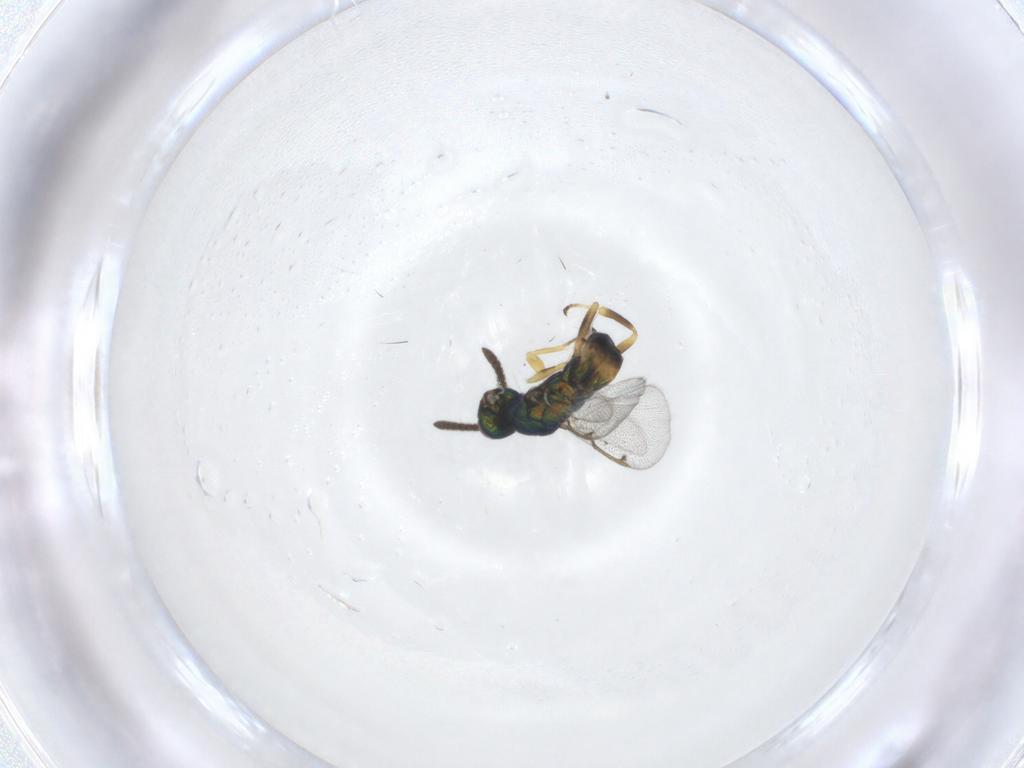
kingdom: Animalia
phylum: Arthropoda
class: Insecta
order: Hymenoptera
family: Torymidae
